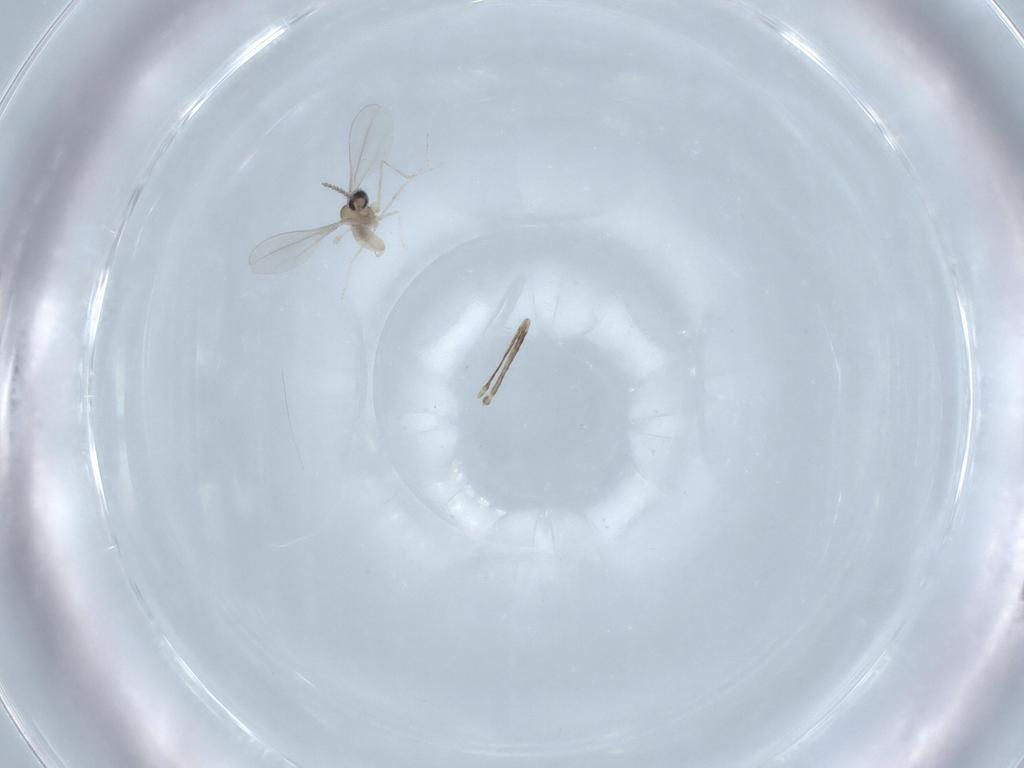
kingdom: Animalia
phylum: Arthropoda
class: Insecta
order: Diptera
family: Cecidomyiidae
